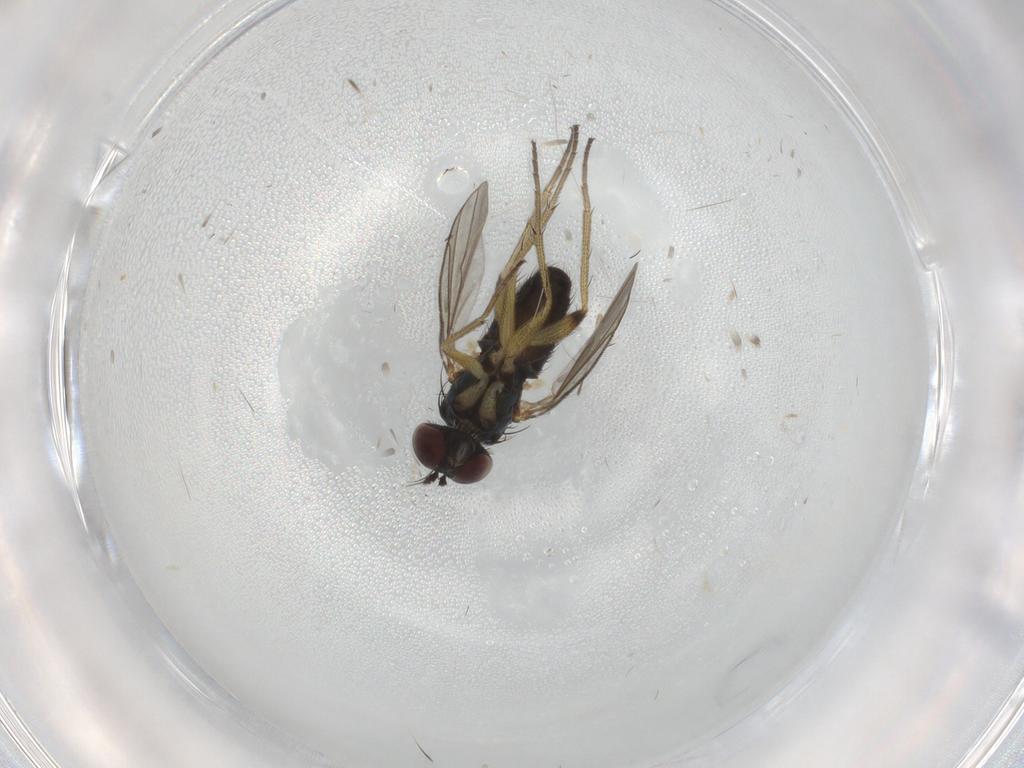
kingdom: Animalia
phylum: Arthropoda
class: Insecta
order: Diptera
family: Dolichopodidae
